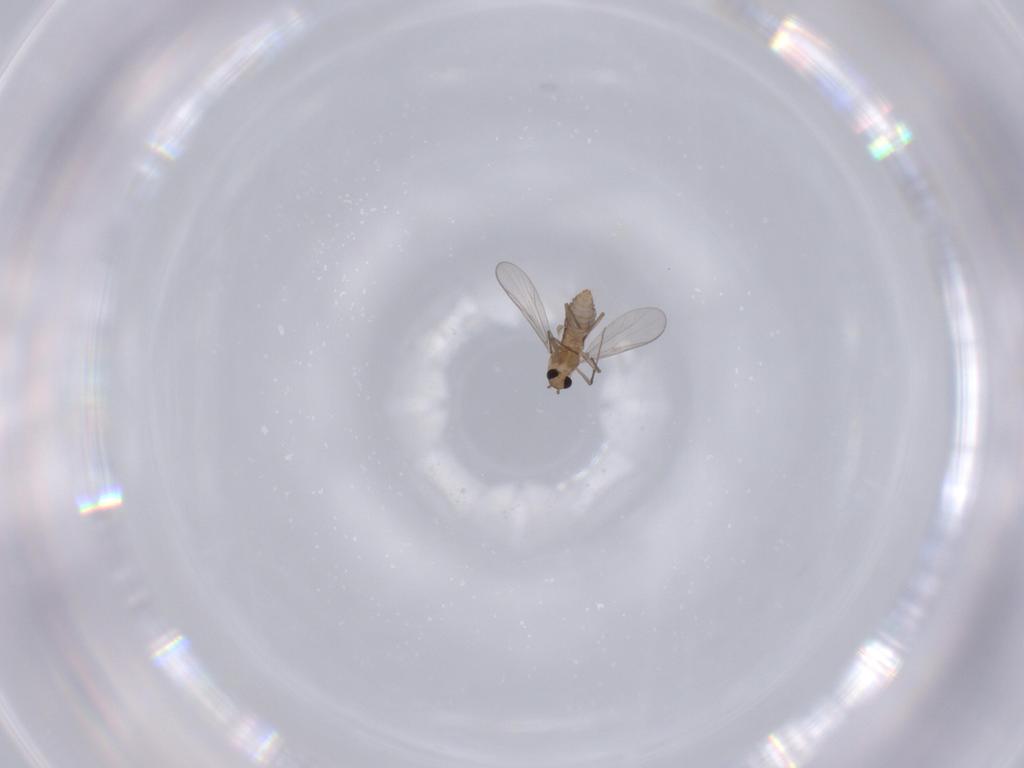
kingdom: Animalia
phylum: Arthropoda
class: Insecta
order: Diptera
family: Chironomidae
